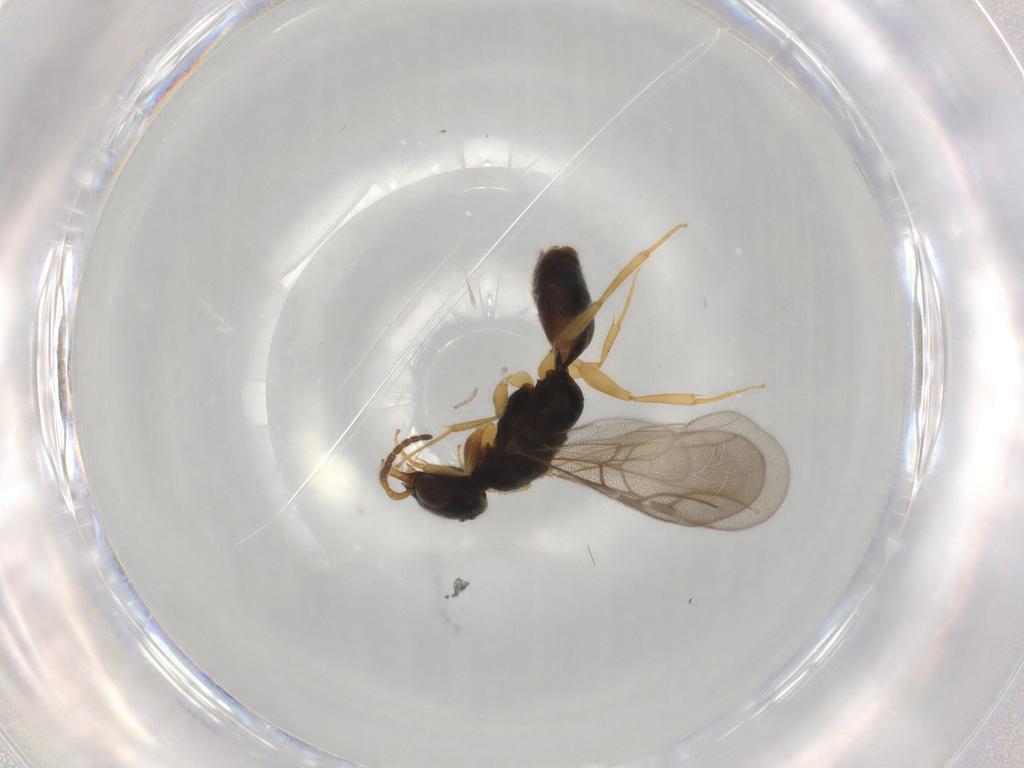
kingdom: Animalia
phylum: Arthropoda
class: Insecta
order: Hymenoptera
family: Bethylidae
